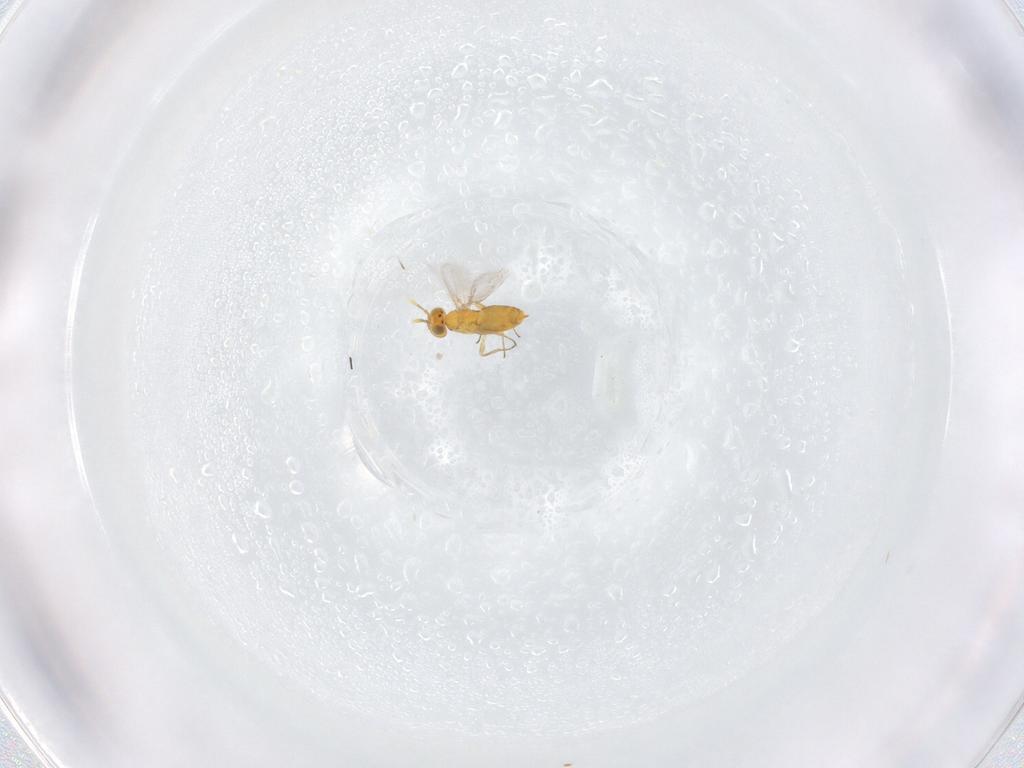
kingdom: Animalia
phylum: Arthropoda
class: Insecta
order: Hymenoptera
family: Aphelinidae
